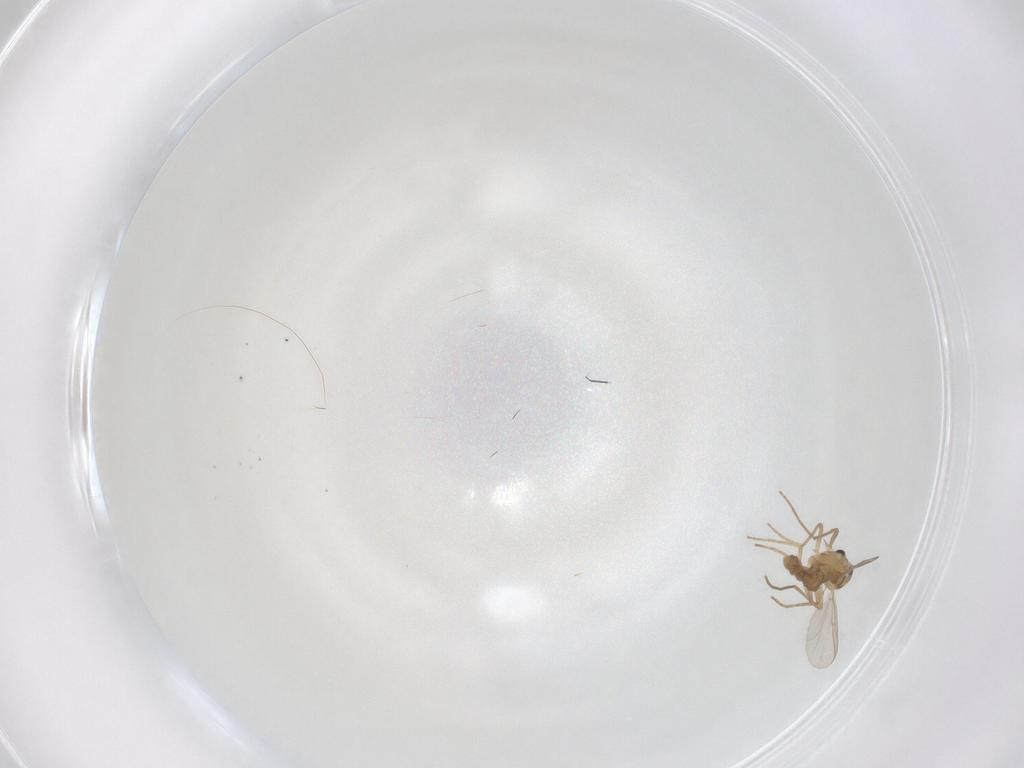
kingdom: Animalia
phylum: Arthropoda
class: Insecta
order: Diptera
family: Chironomidae
